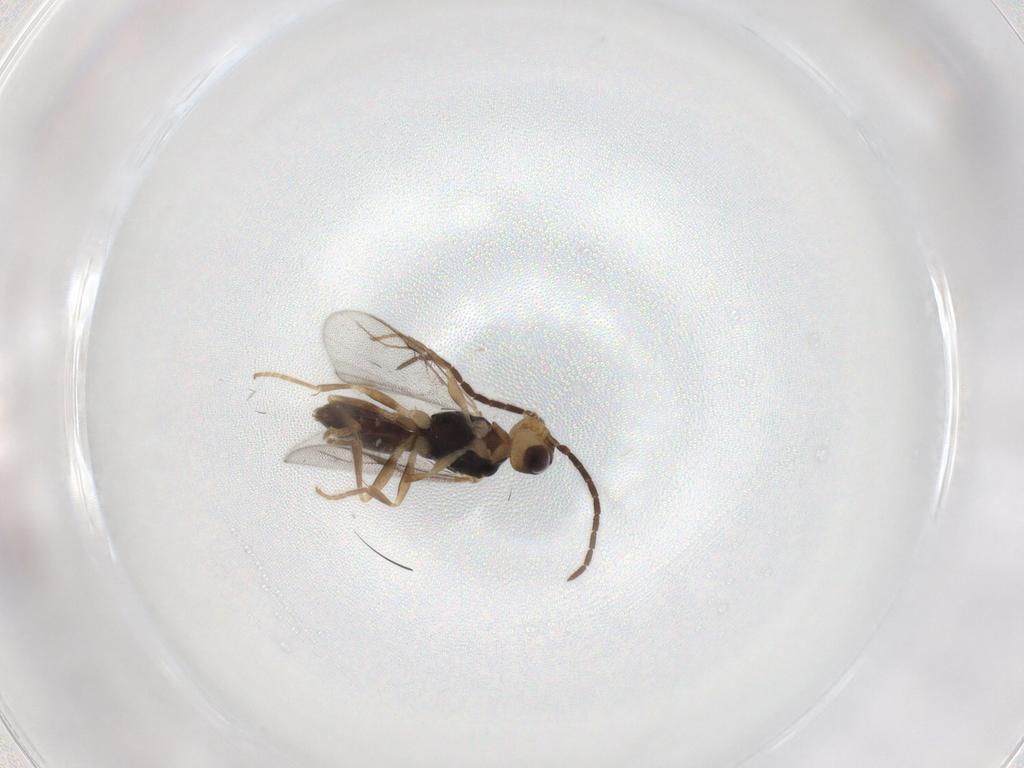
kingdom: Animalia
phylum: Arthropoda
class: Insecta
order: Hymenoptera
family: Dryinidae
